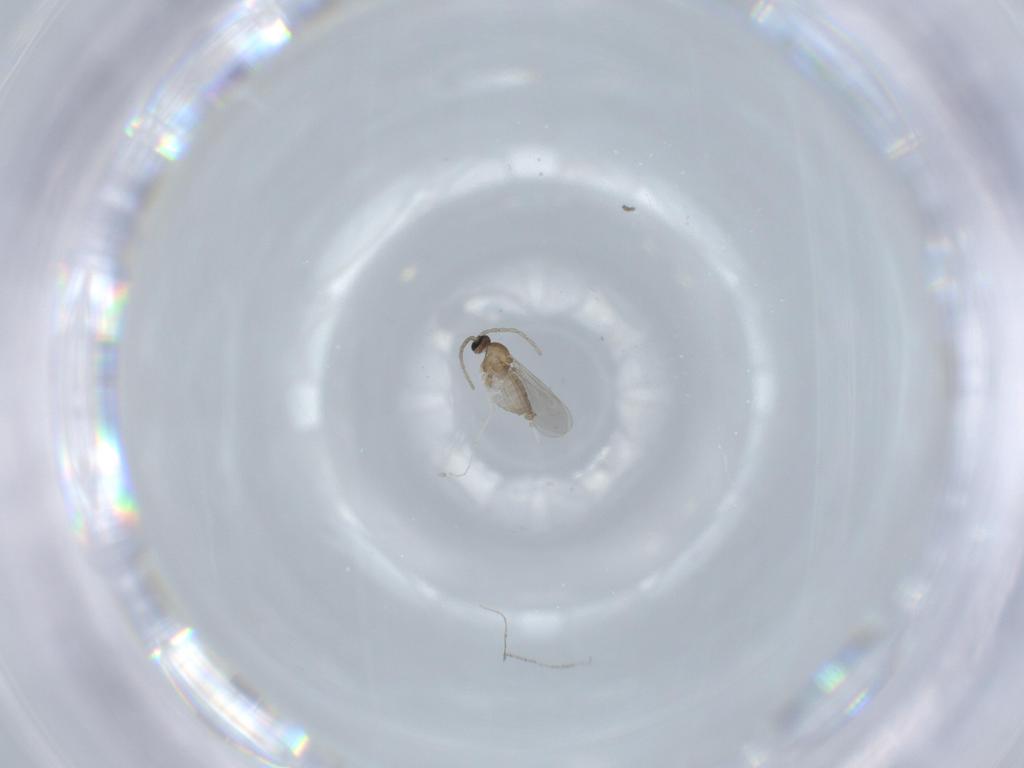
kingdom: Animalia
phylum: Arthropoda
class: Insecta
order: Diptera
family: Cecidomyiidae
